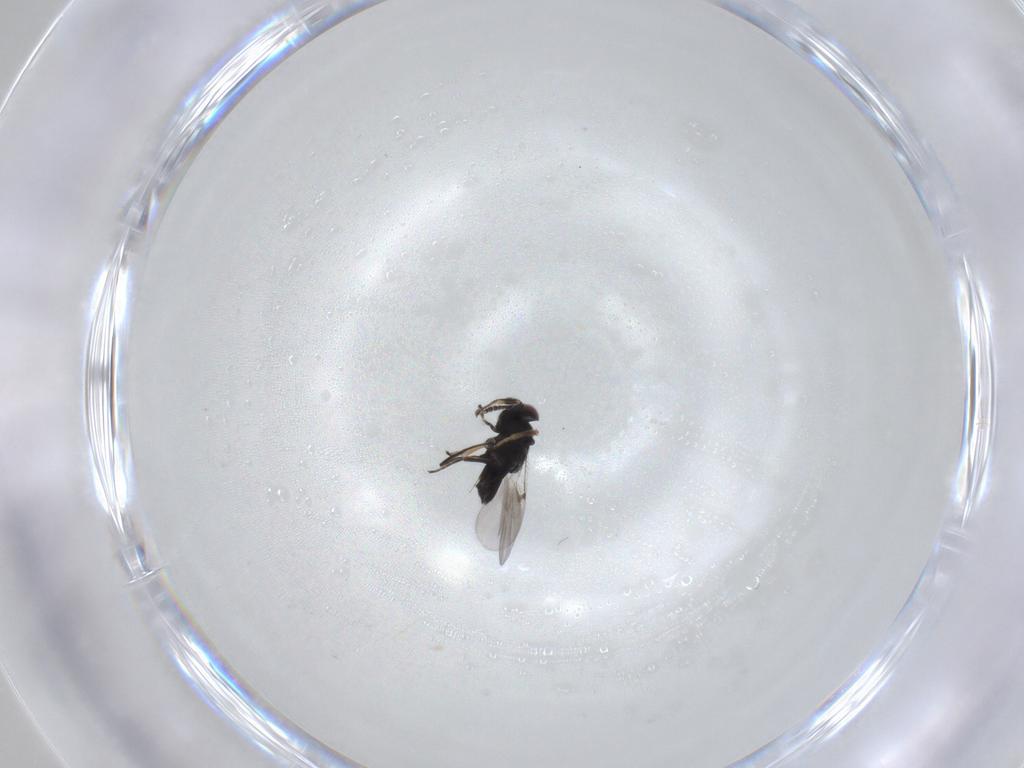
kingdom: Animalia
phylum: Arthropoda
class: Insecta
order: Hymenoptera
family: Encyrtidae
